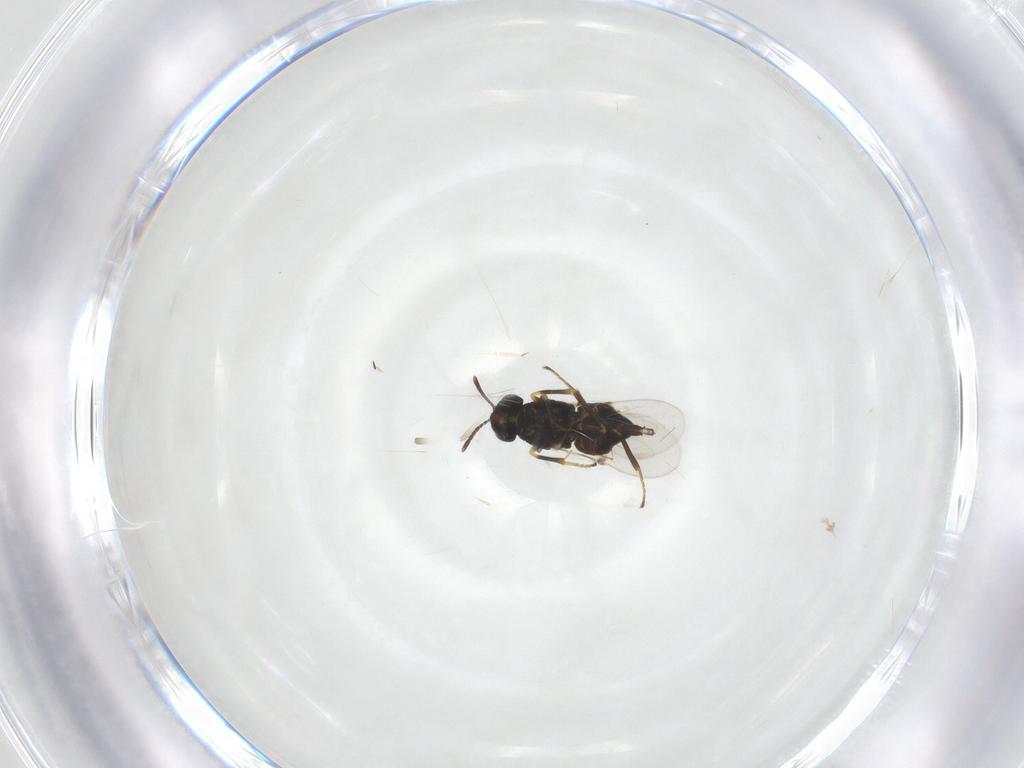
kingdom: Animalia
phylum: Arthropoda
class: Insecta
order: Hymenoptera
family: Encyrtidae
